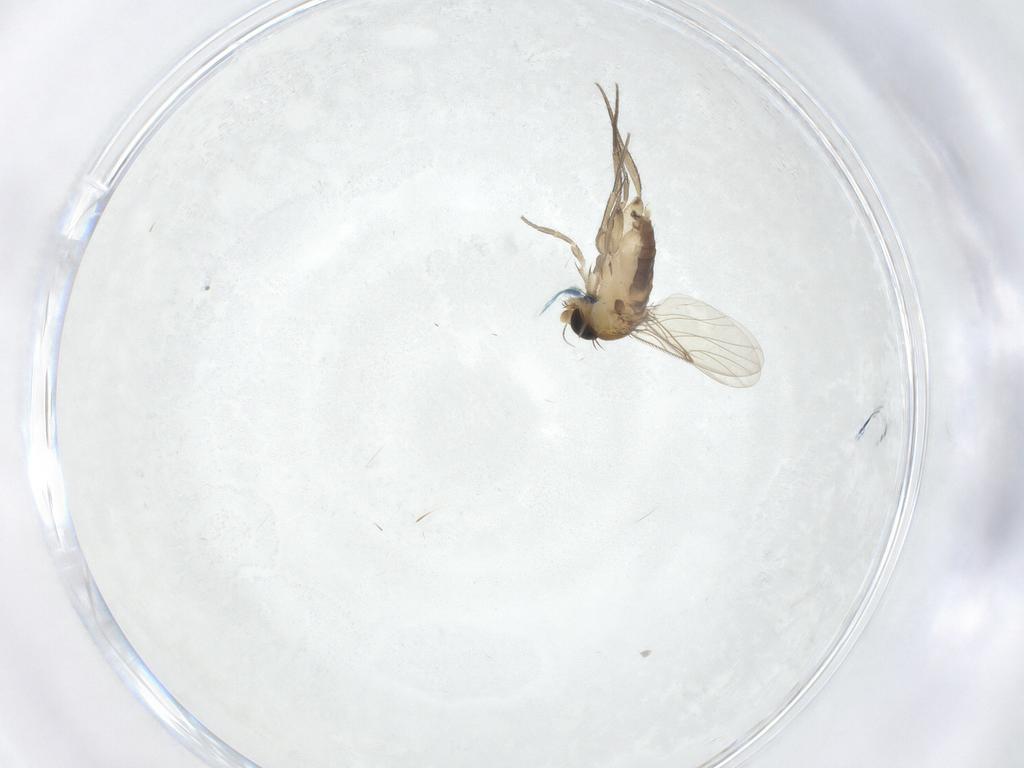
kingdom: Animalia
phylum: Arthropoda
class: Insecta
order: Diptera
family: Phoridae
